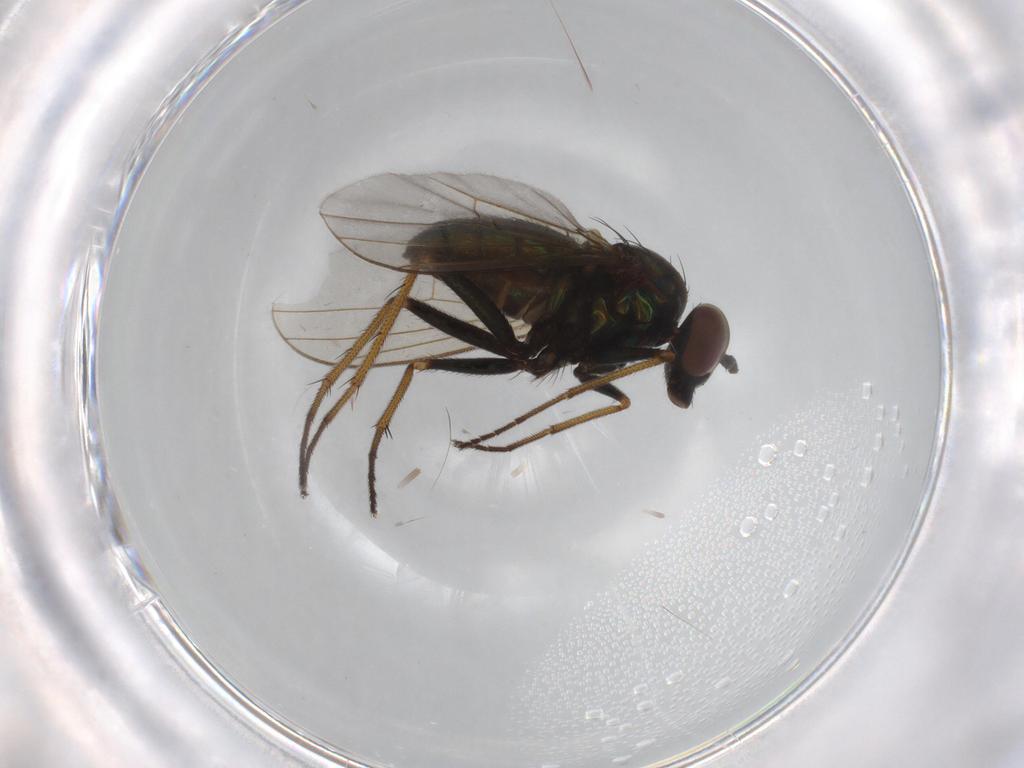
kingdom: Animalia
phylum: Arthropoda
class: Insecta
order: Diptera
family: Dolichopodidae
